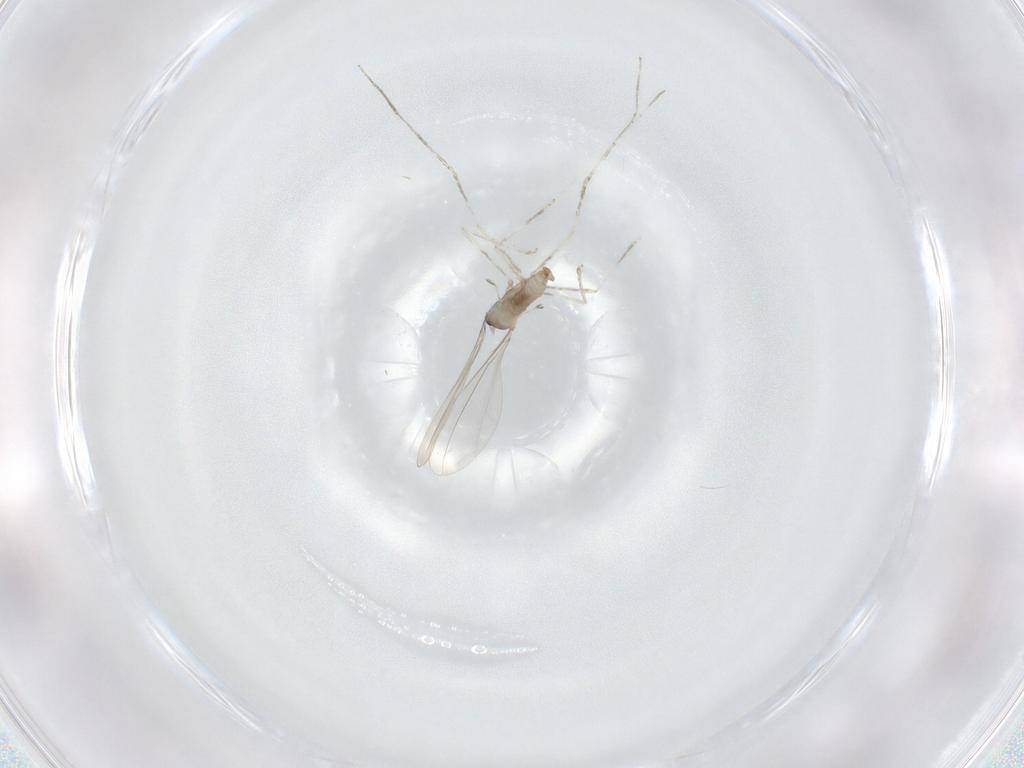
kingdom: Animalia
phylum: Arthropoda
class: Insecta
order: Diptera
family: Cecidomyiidae
